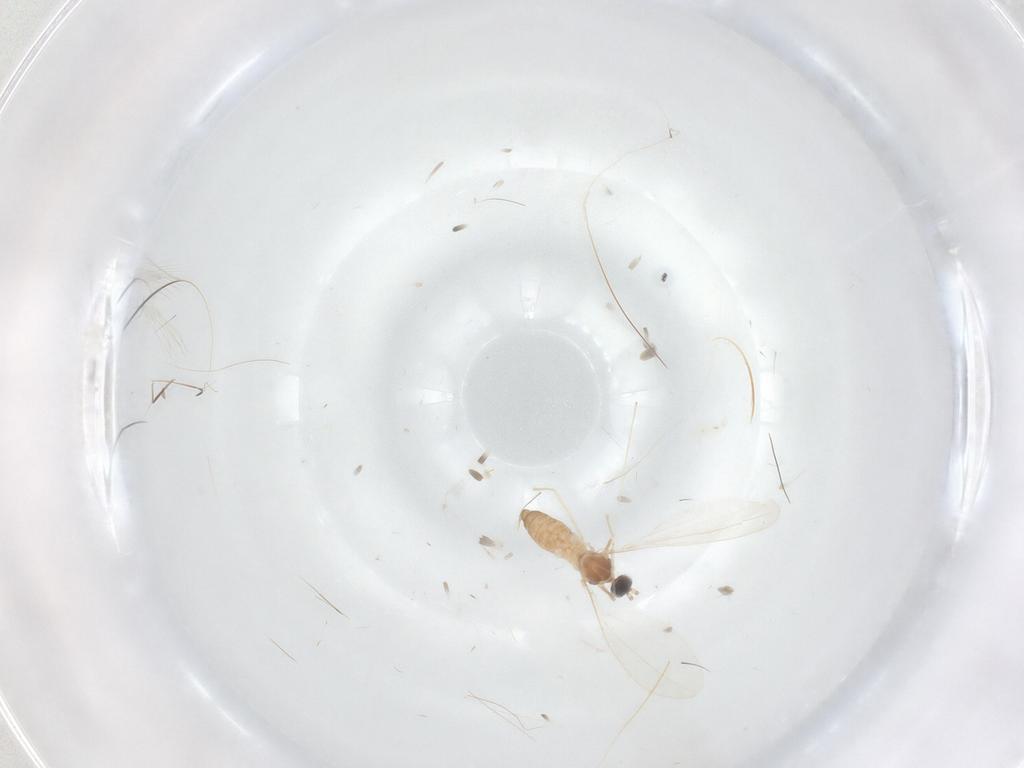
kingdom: Animalia
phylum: Arthropoda
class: Insecta
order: Diptera
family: Cecidomyiidae
